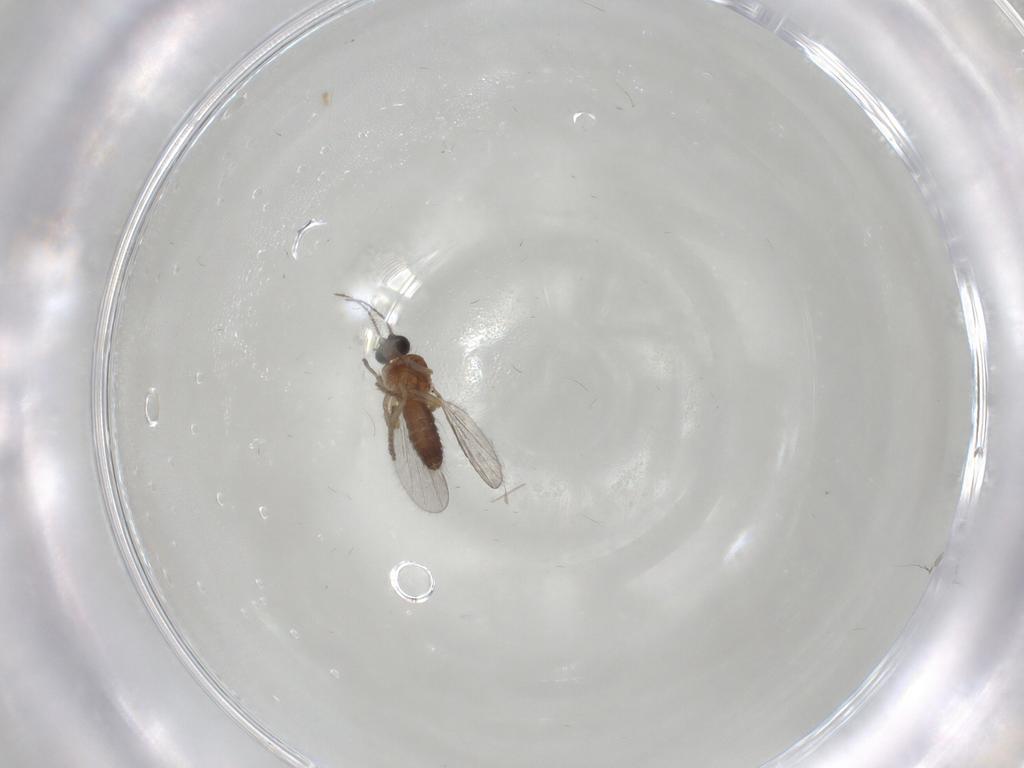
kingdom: Animalia
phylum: Arthropoda
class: Insecta
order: Diptera
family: Ceratopogonidae
